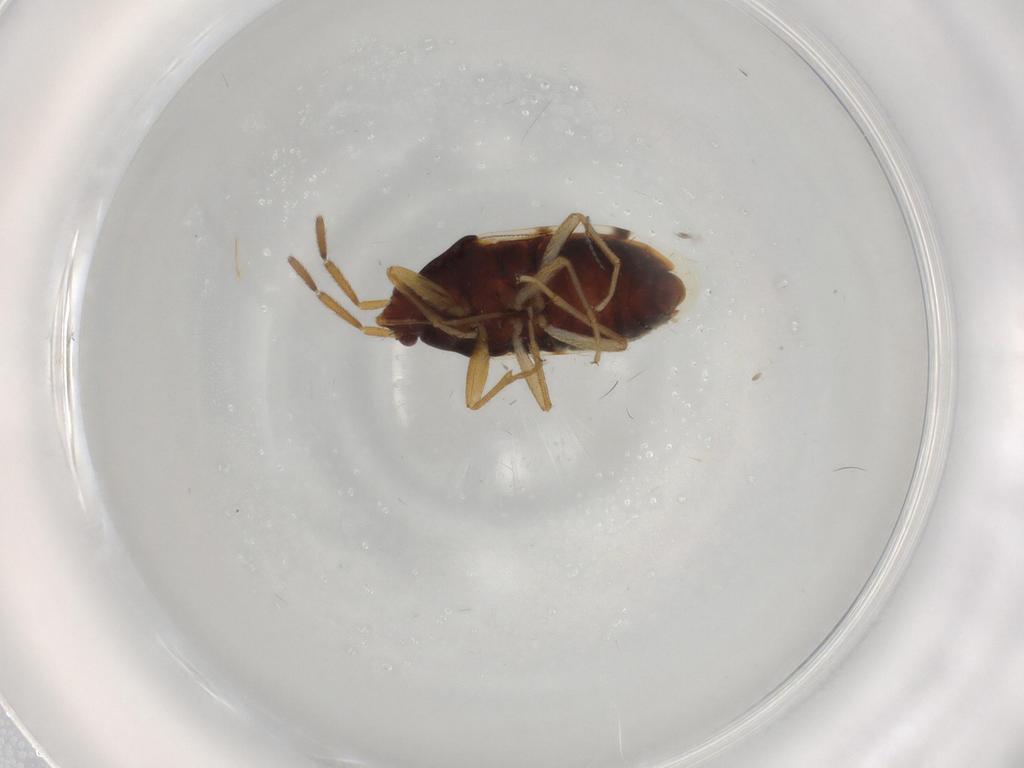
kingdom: Animalia
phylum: Arthropoda
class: Insecta
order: Hemiptera
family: Rhyparochromidae
